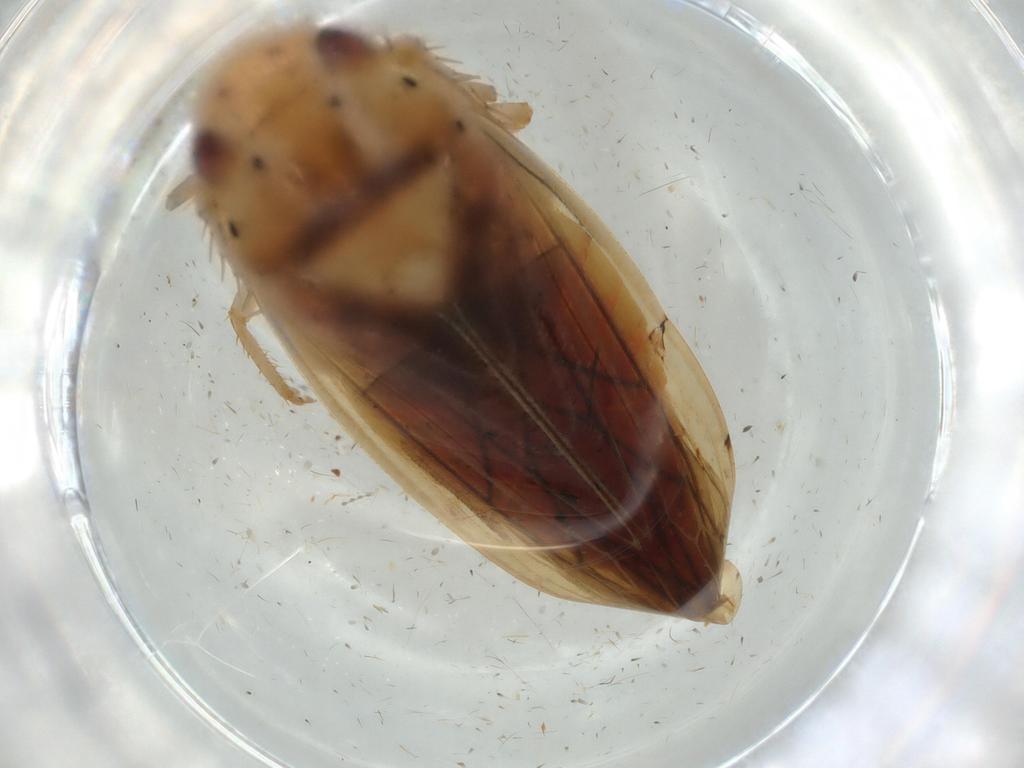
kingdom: Animalia
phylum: Arthropoda
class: Insecta
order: Hemiptera
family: Cicadellidae
